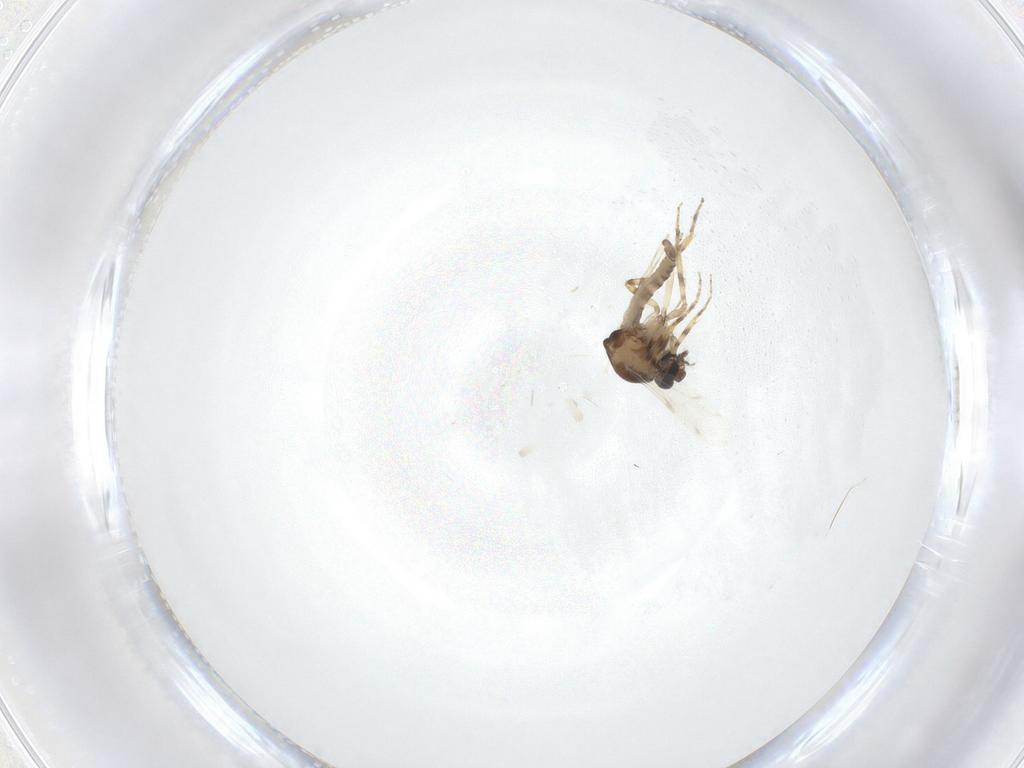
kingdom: Animalia
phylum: Arthropoda
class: Insecta
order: Diptera
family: Ceratopogonidae
